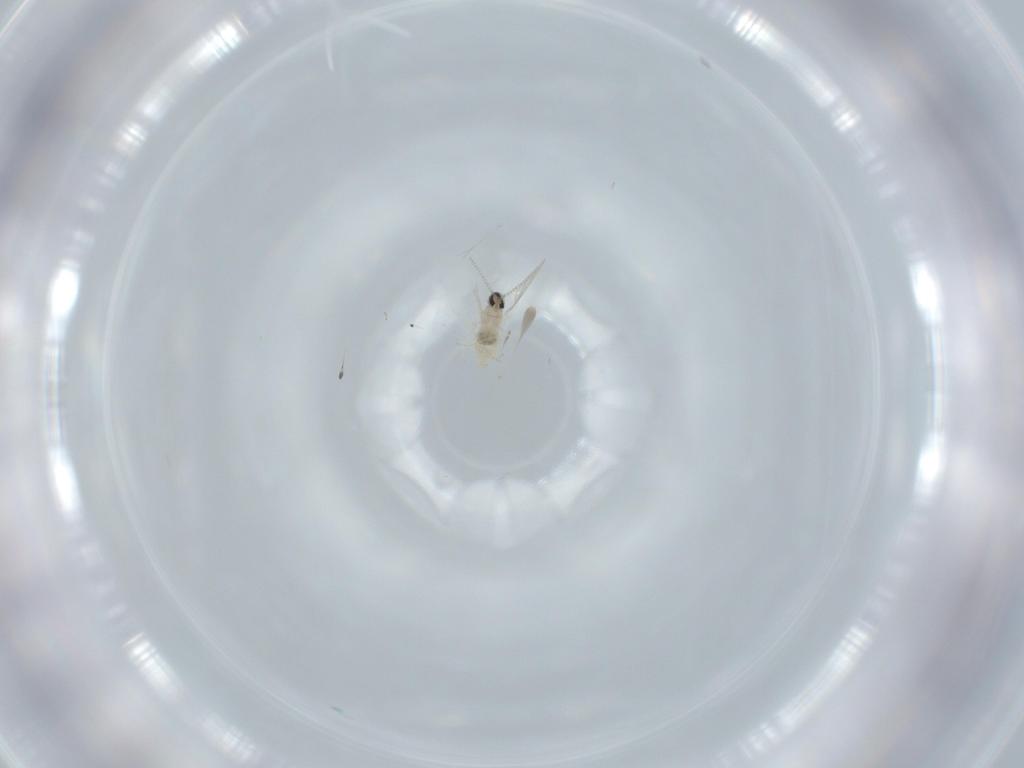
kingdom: Animalia
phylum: Arthropoda
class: Insecta
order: Diptera
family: Cecidomyiidae
